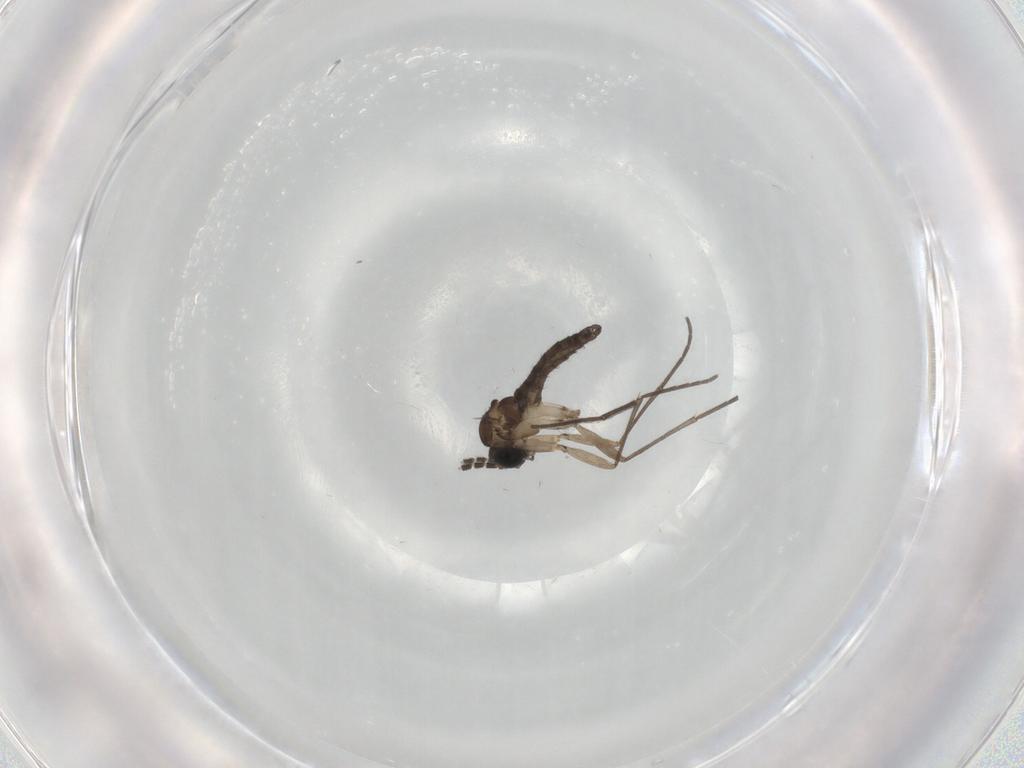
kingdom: Animalia
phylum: Arthropoda
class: Insecta
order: Diptera
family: Sciaridae
